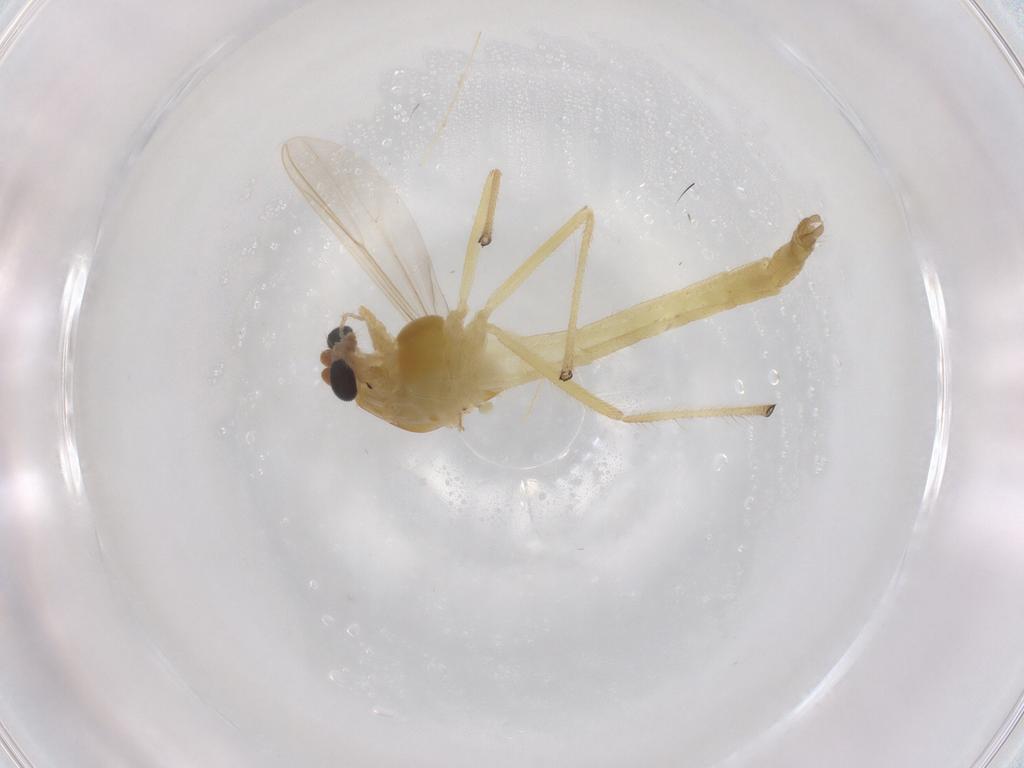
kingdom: Animalia
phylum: Arthropoda
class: Insecta
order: Diptera
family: Chironomidae
